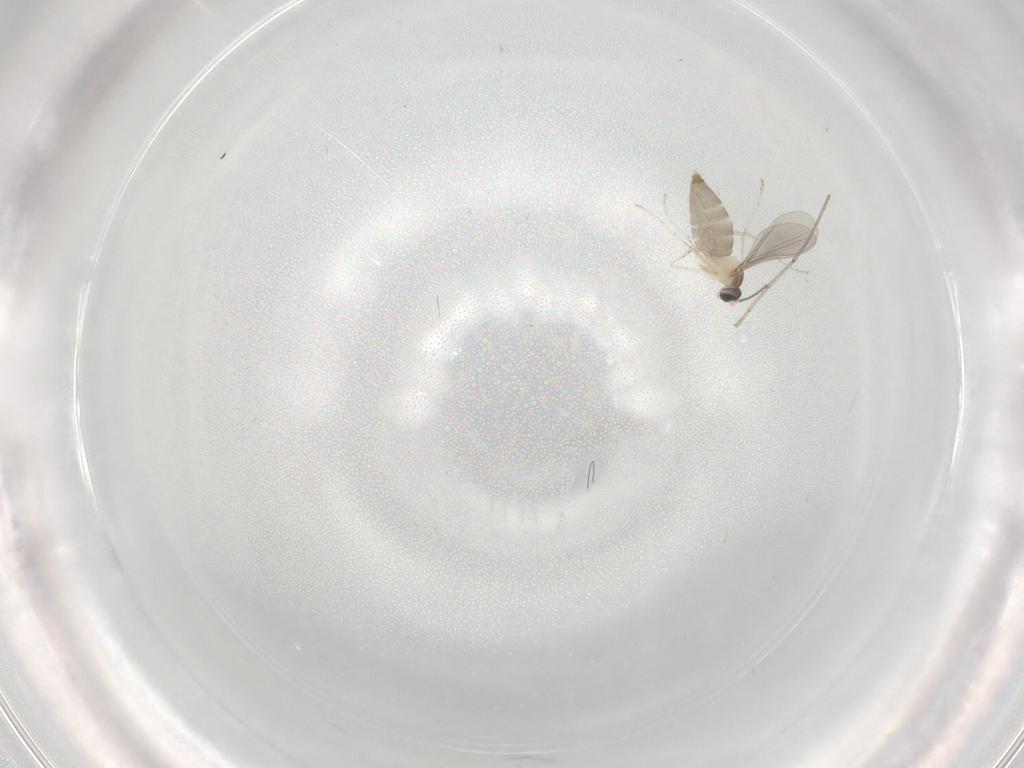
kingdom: Animalia
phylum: Arthropoda
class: Insecta
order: Diptera
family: Cecidomyiidae
